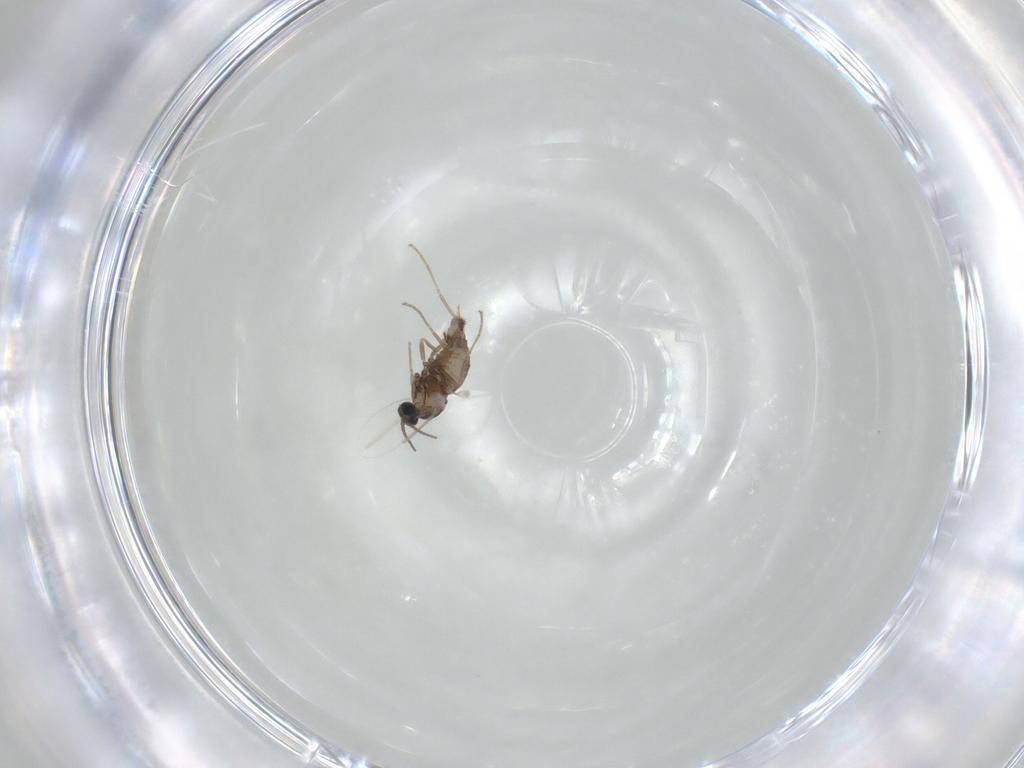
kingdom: Animalia
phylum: Arthropoda
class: Insecta
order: Diptera
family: Cecidomyiidae
